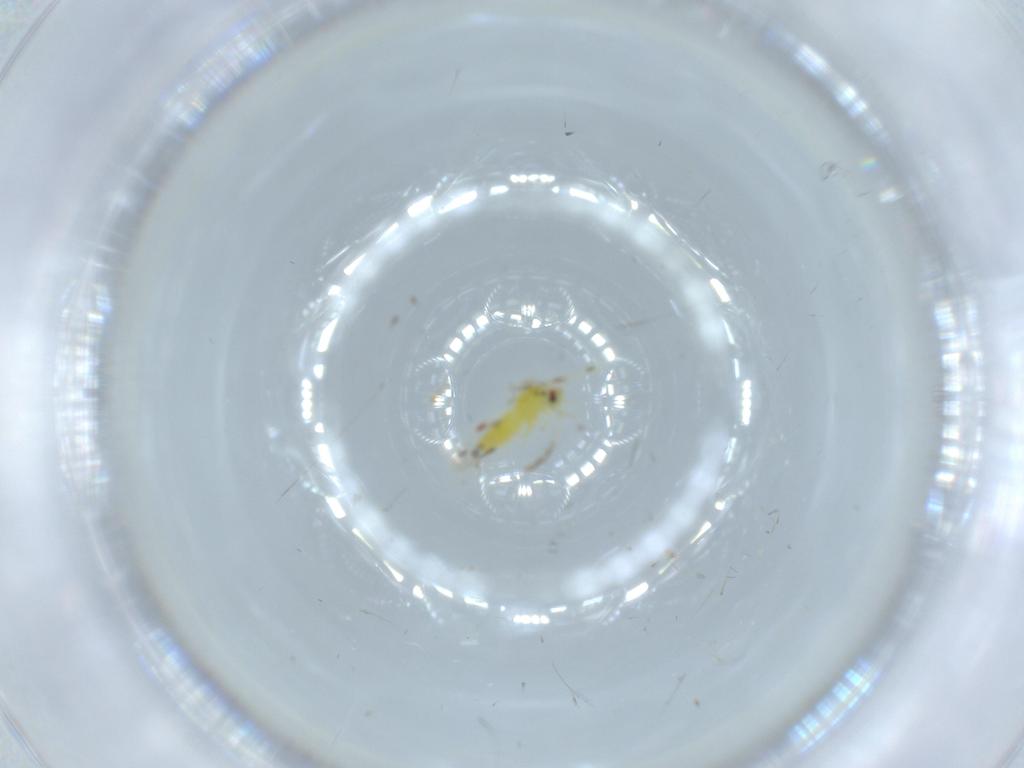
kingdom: Animalia
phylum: Arthropoda
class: Insecta
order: Hemiptera
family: Aleyrodidae
